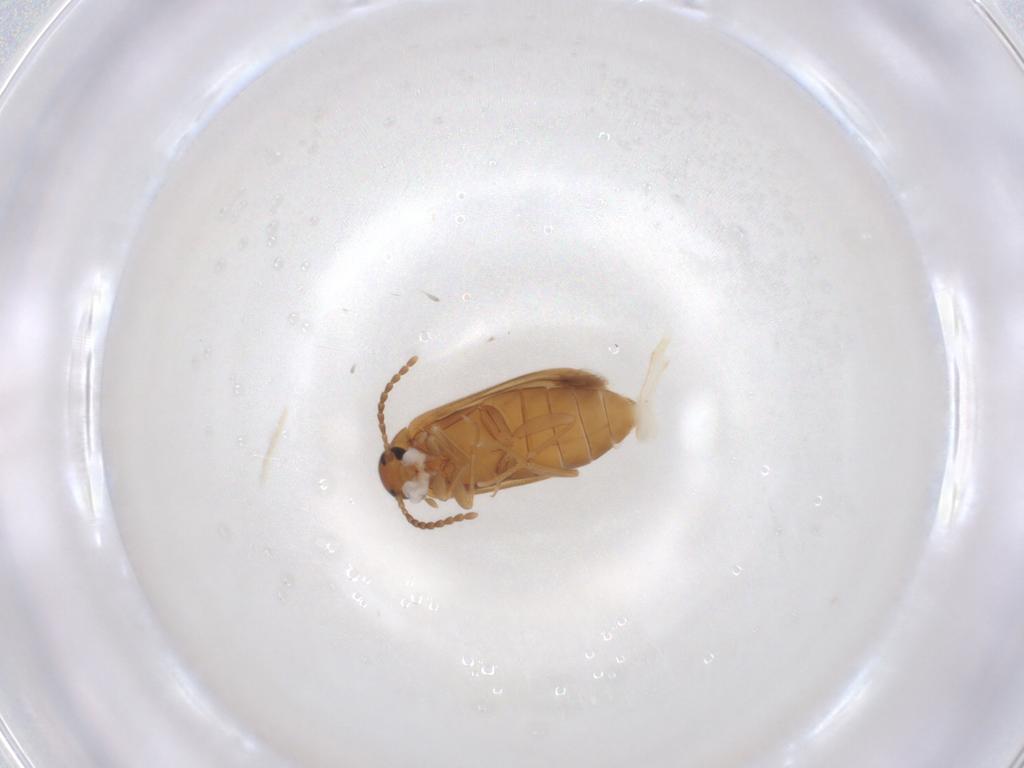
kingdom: Animalia
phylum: Arthropoda
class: Insecta
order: Coleoptera
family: Scraptiidae
